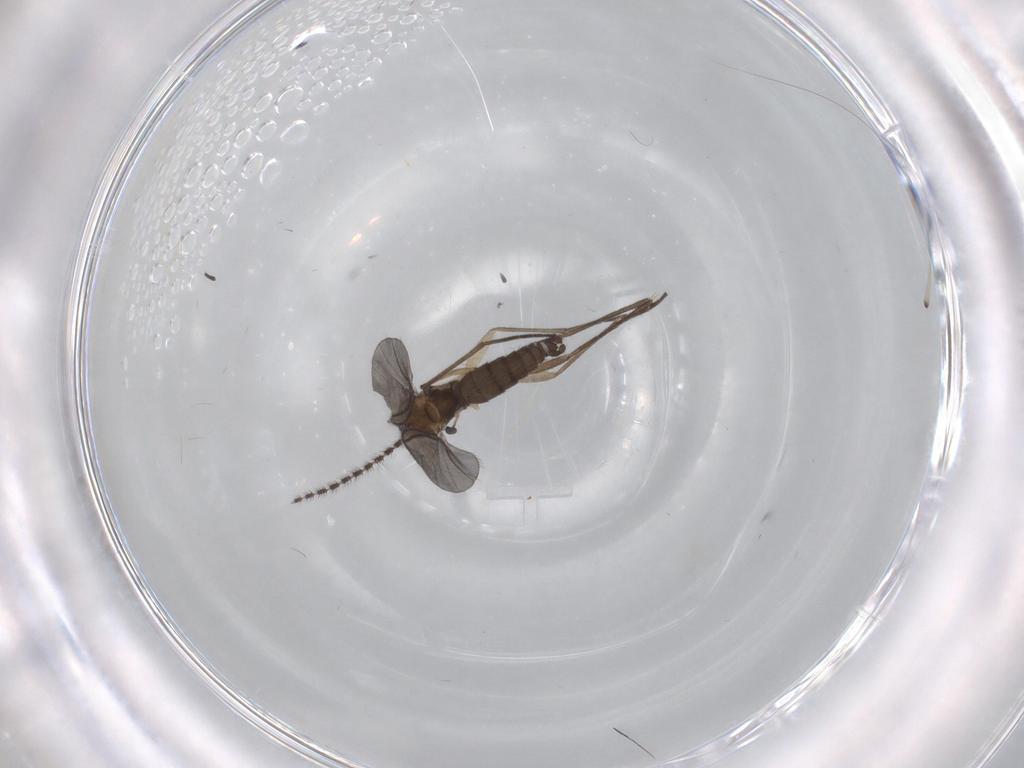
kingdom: Animalia
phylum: Arthropoda
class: Insecta
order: Diptera
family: Sciaridae
